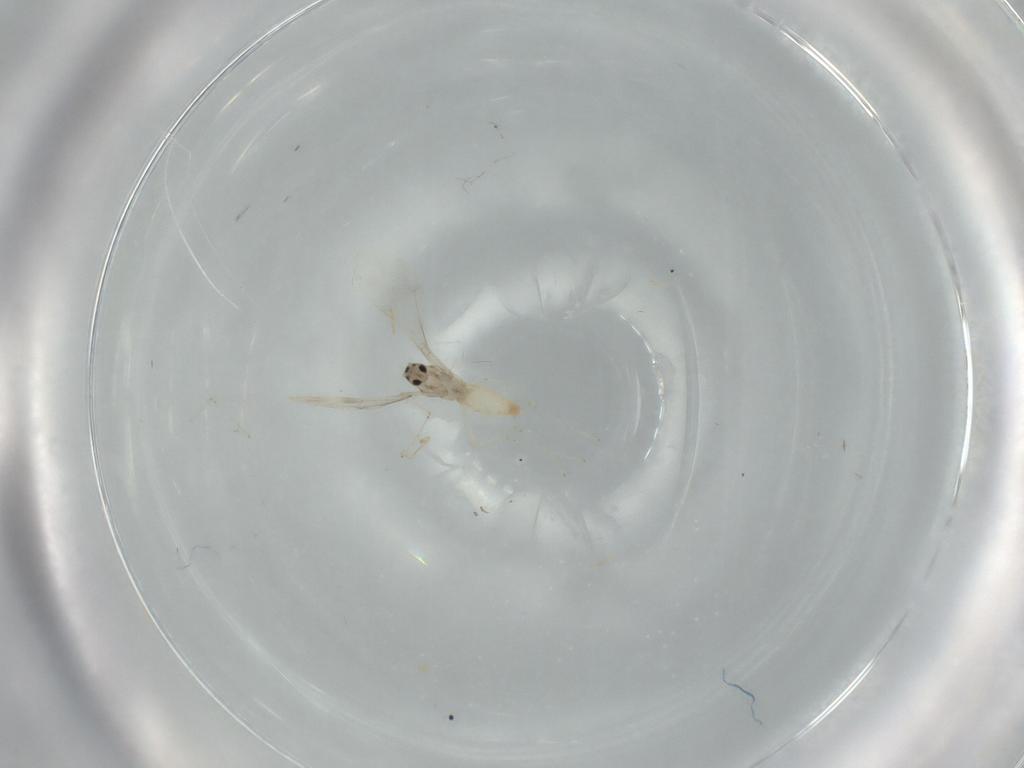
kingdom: Animalia
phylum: Arthropoda
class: Insecta
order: Diptera
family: Cecidomyiidae
